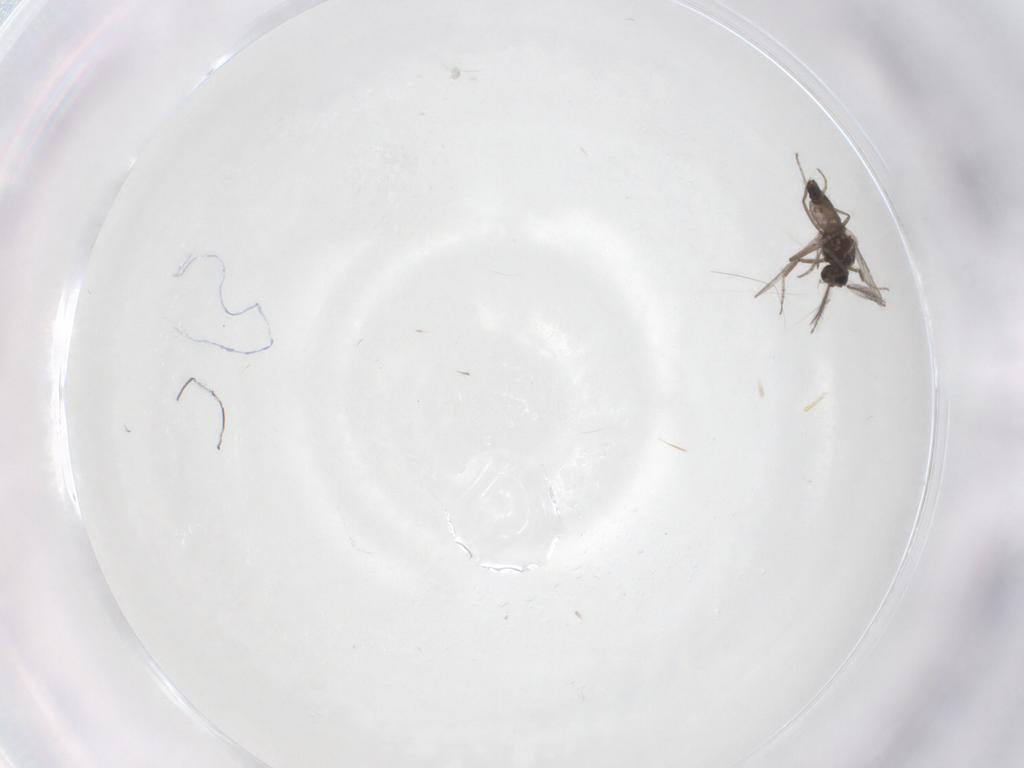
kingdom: Animalia
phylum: Arthropoda
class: Insecta
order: Diptera
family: Ceratopogonidae
